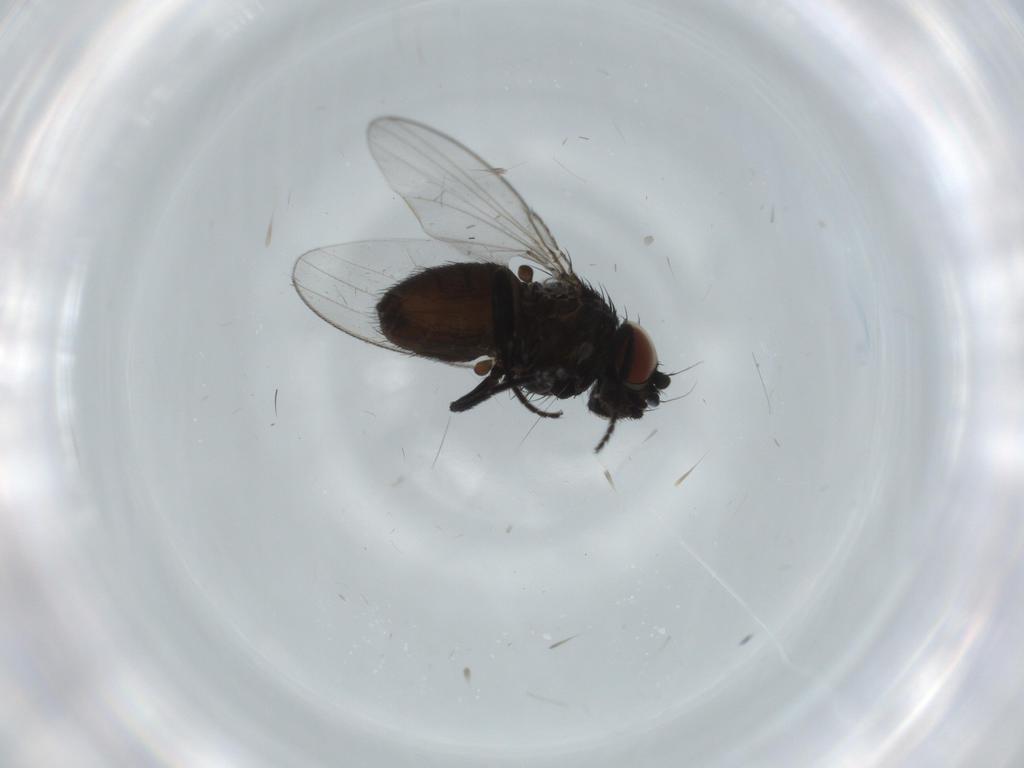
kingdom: Animalia
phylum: Arthropoda
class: Insecta
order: Diptera
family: Milichiidae
